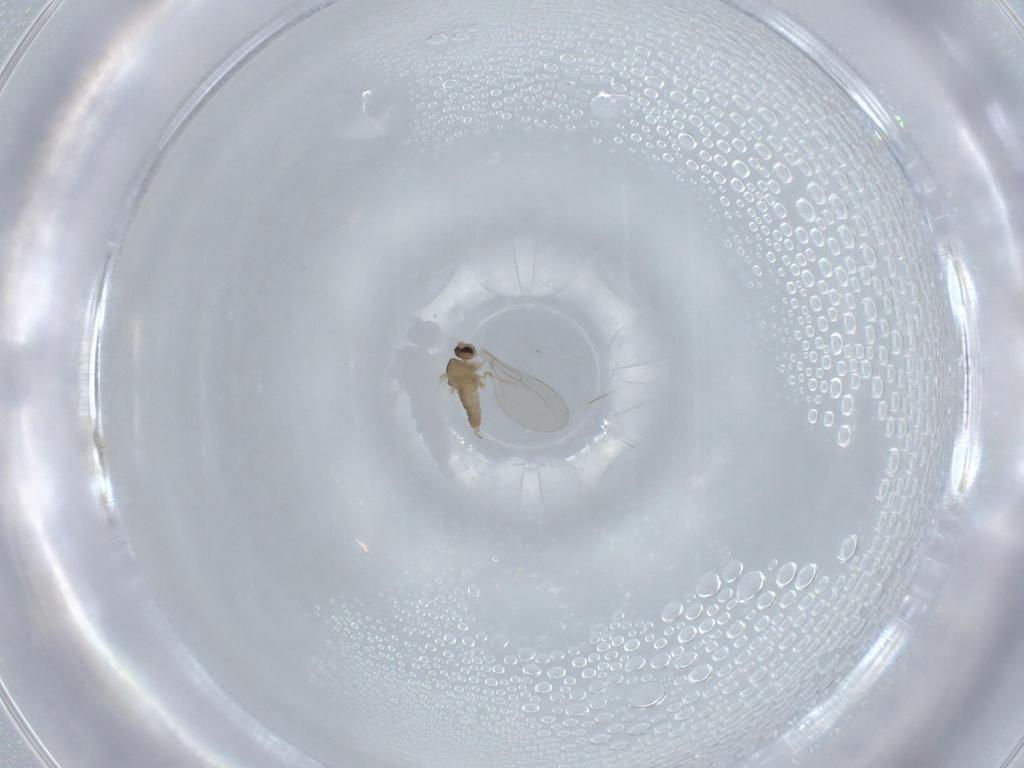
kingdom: Animalia
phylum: Arthropoda
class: Insecta
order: Diptera
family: Cecidomyiidae
